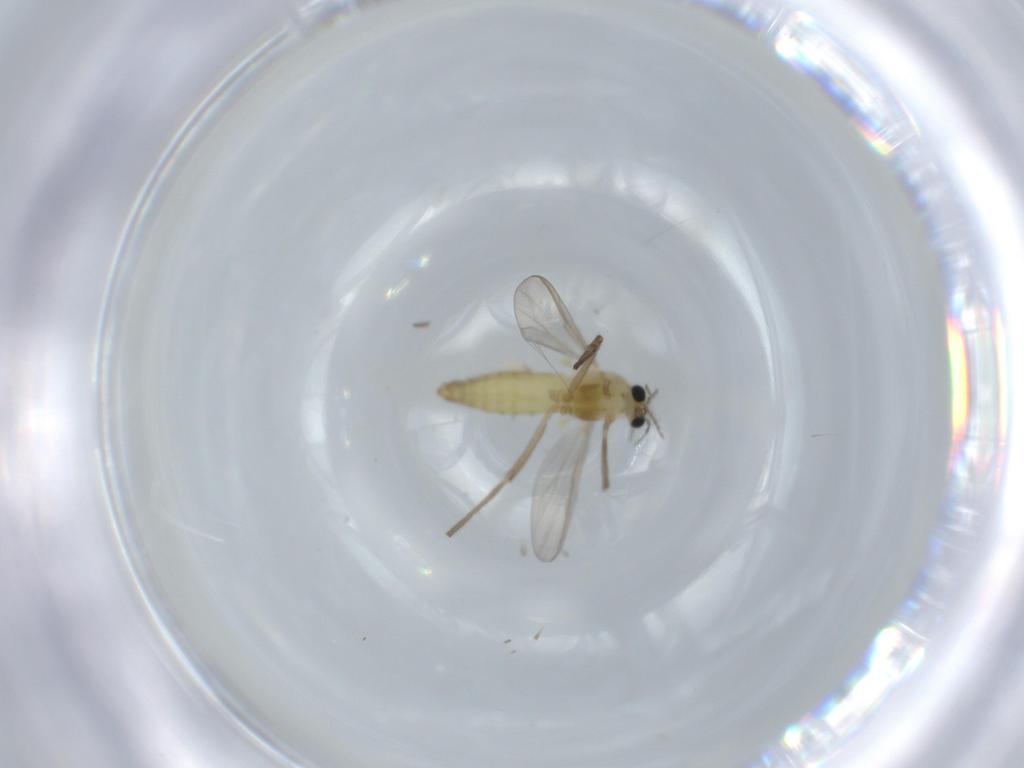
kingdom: Animalia
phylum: Arthropoda
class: Insecta
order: Diptera
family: Chironomidae
